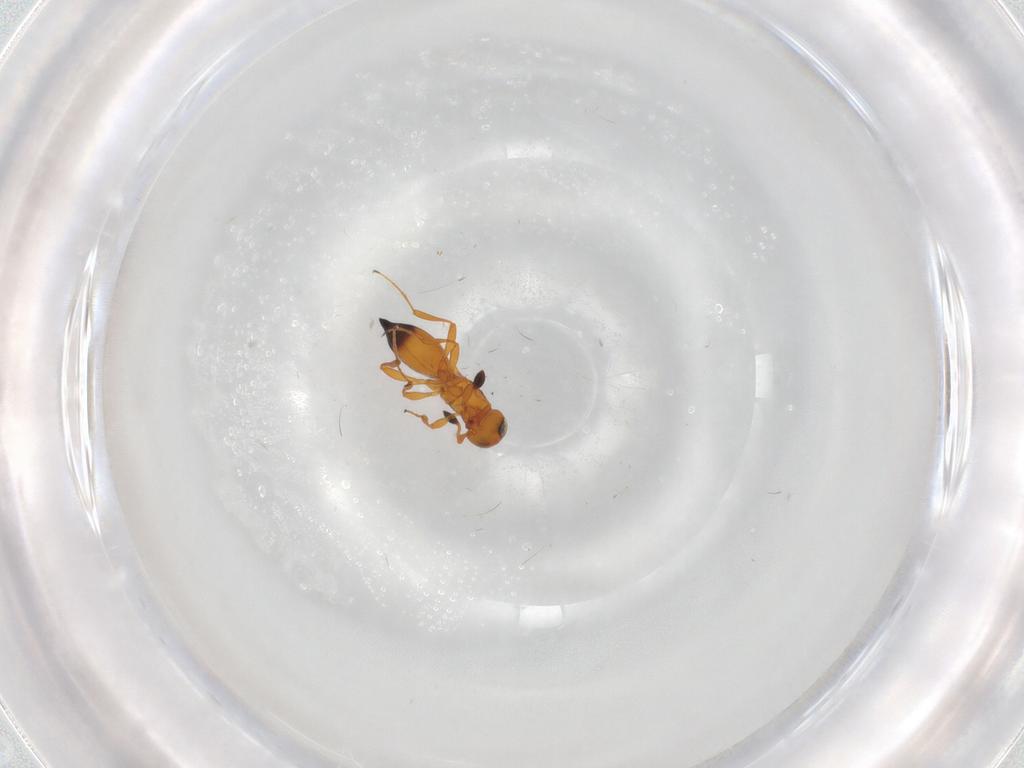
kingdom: Animalia
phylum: Arthropoda
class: Insecta
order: Hymenoptera
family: Platygastridae
